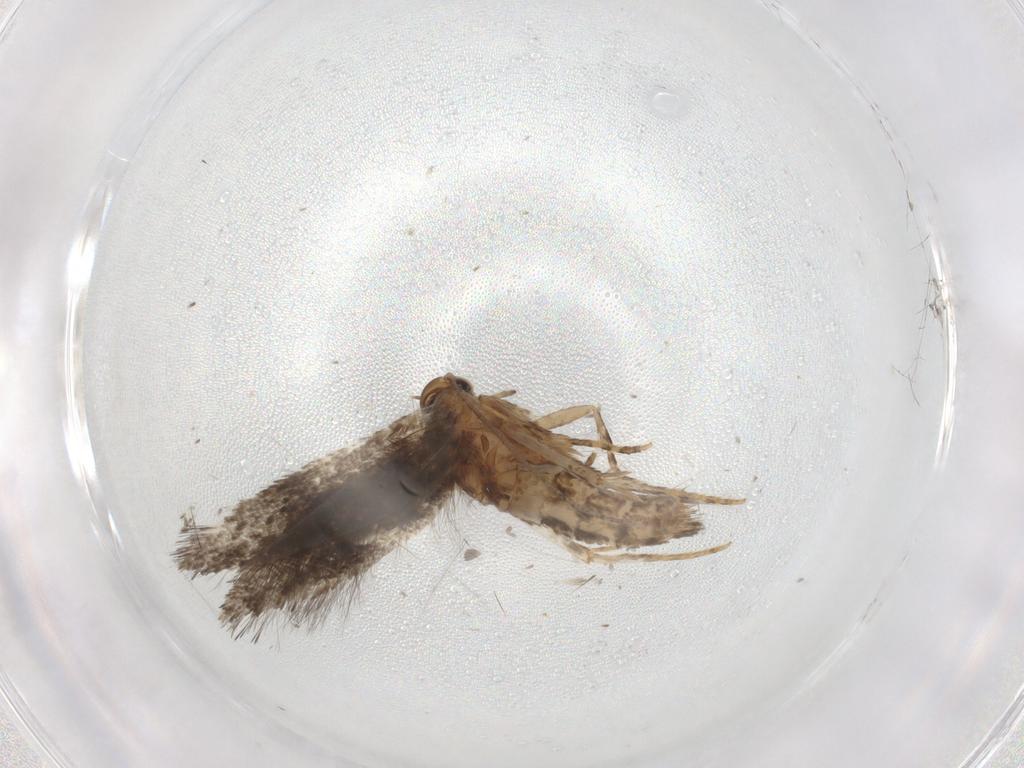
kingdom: Animalia
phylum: Arthropoda
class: Insecta
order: Lepidoptera
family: Elachistidae
